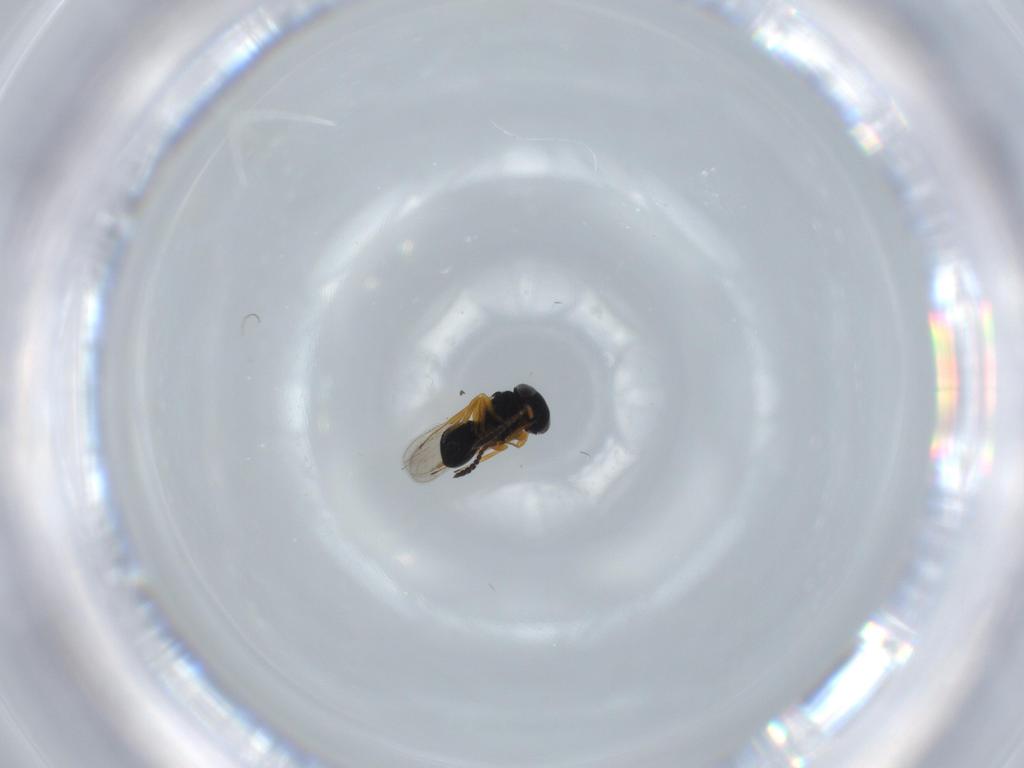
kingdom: Animalia
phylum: Arthropoda
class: Insecta
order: Hymenoptera
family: Scelionidae
